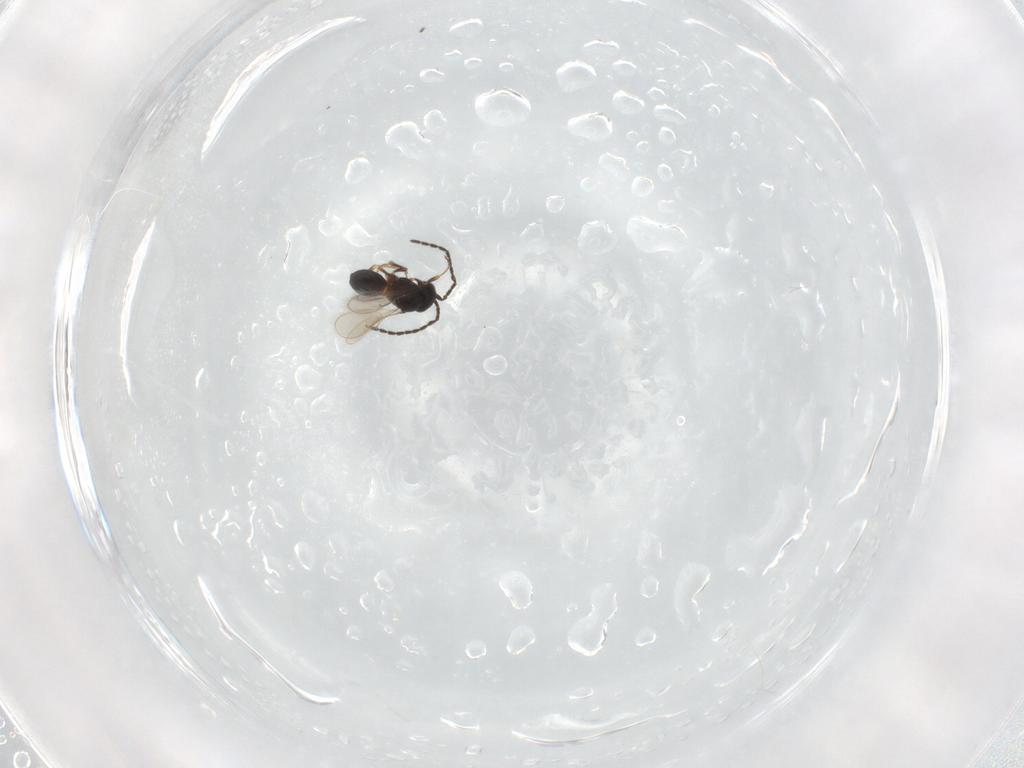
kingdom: Animalia
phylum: Arthropoda
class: Insecta
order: Hymenoptera
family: Scelionidae
